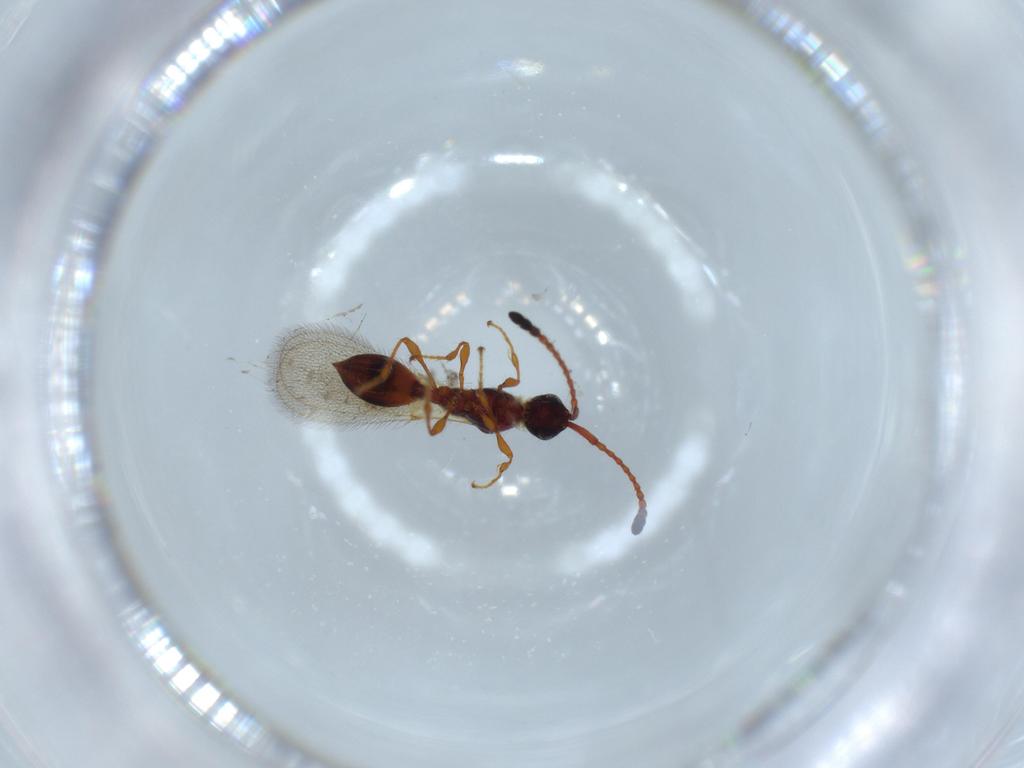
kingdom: Animalia
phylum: Arthropoda
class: Insecta
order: Hymenoptera
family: Diapriidae
